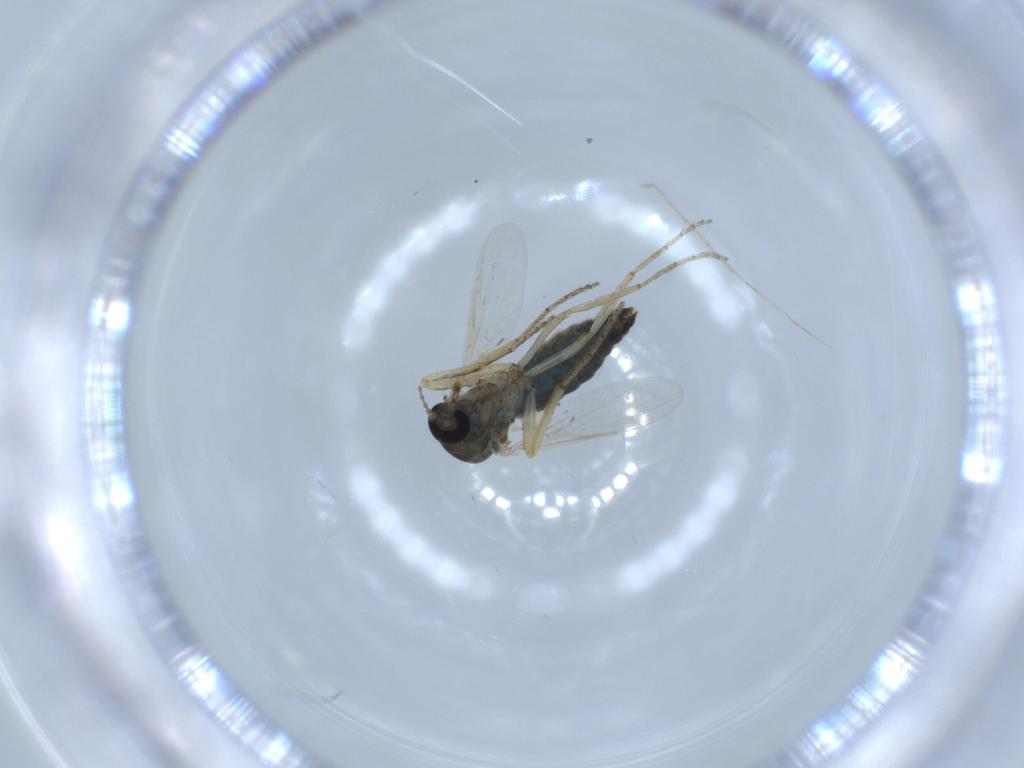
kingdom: Animalia
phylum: Arthropoda
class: Insecta
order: Diptera
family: Ceratopogonidae
